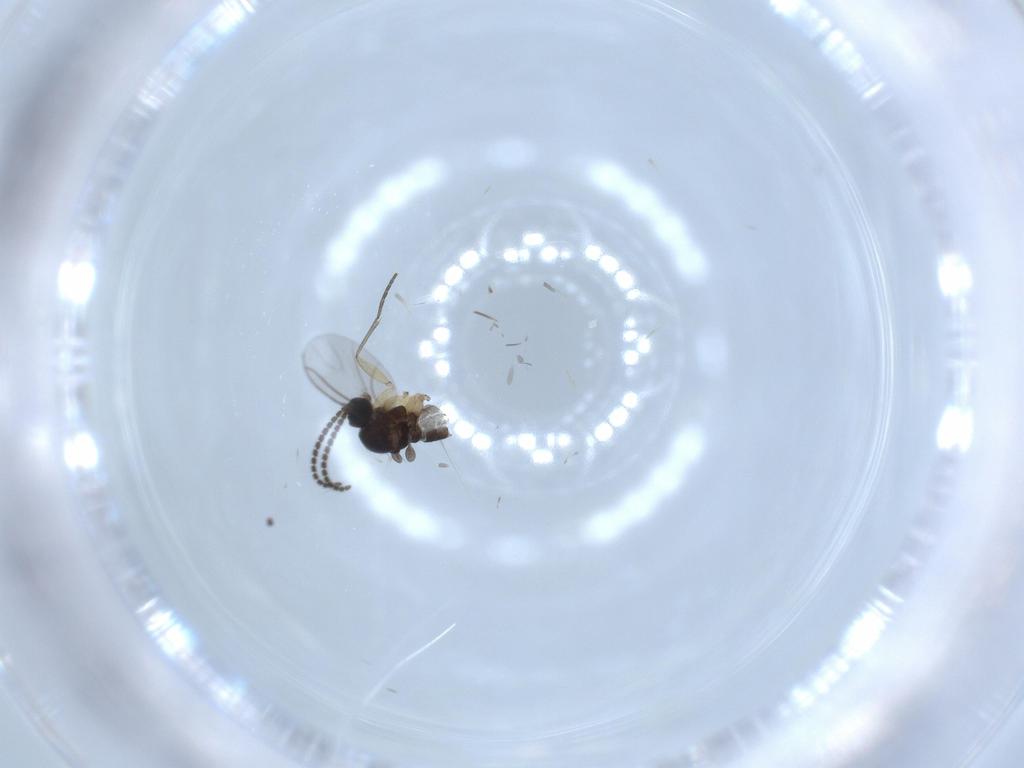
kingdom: Animalia
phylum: Arthropoda
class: Insecta
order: Diptera
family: Sciaridae
